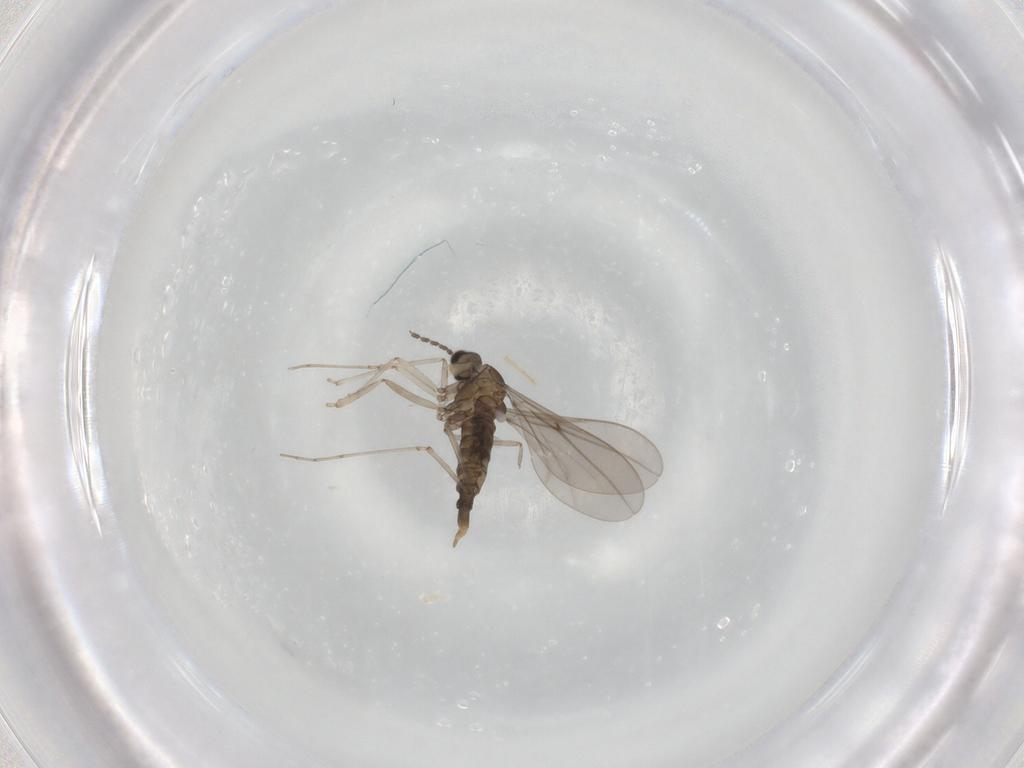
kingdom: Animalia
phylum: Arthropoda
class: Insecta
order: Diptera
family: Cecidomyiidae
